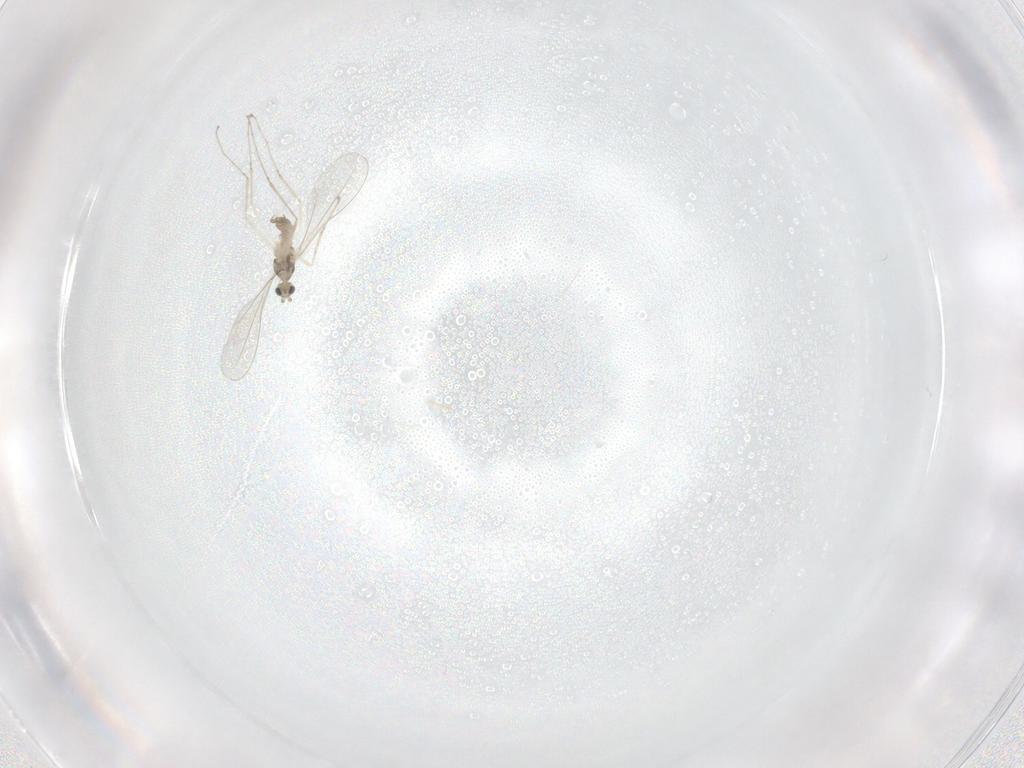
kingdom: Animalia
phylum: Arthropoda
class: Insecta
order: Diptera
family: Cecidomyiidae
